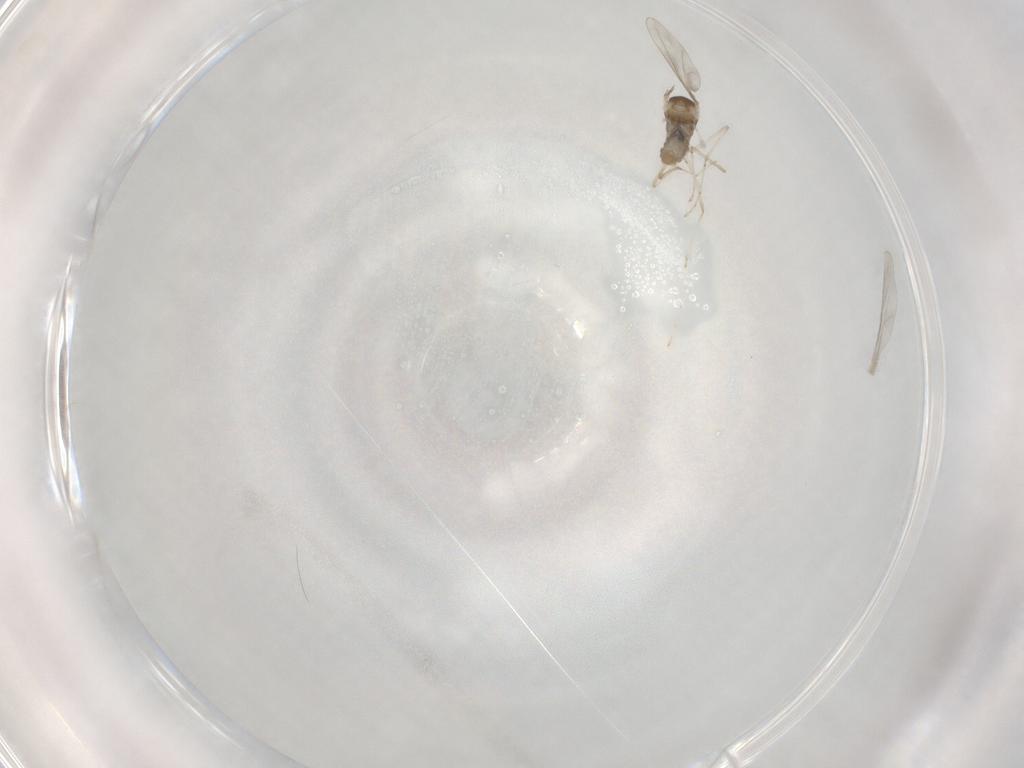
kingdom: Animalia
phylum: Arthropoda
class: Insecta
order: Diptera
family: Cecidomyiidae
